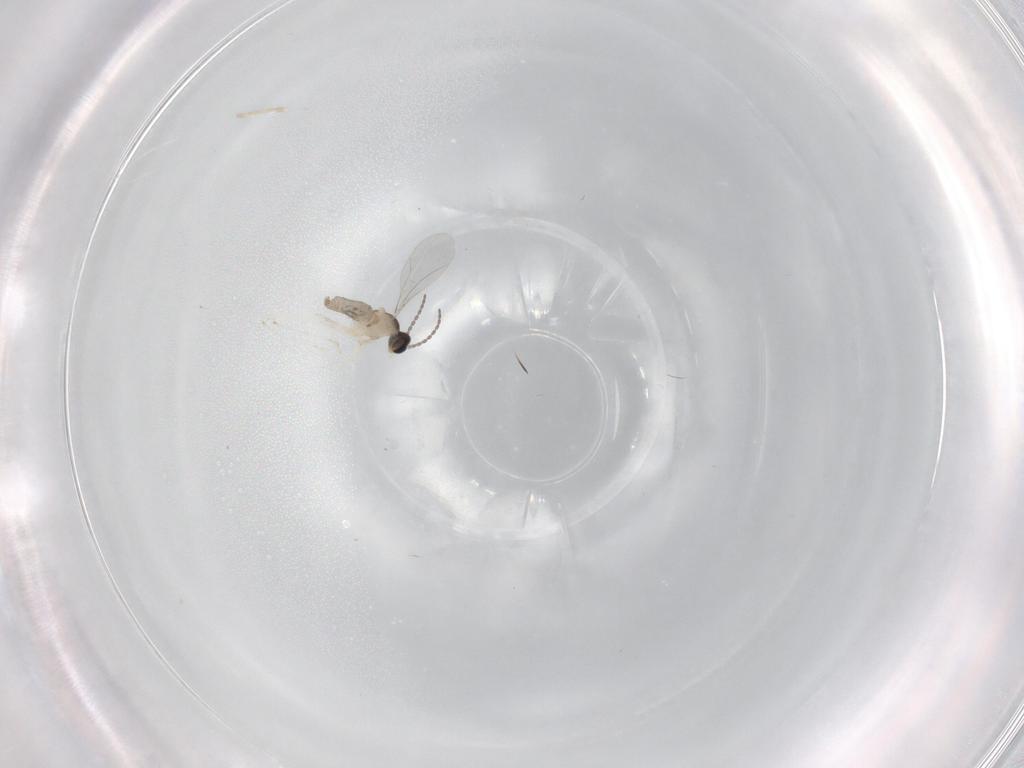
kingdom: Animalia
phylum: Arthropoda
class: Insecta
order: Diptera
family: Cecidomyiidae
